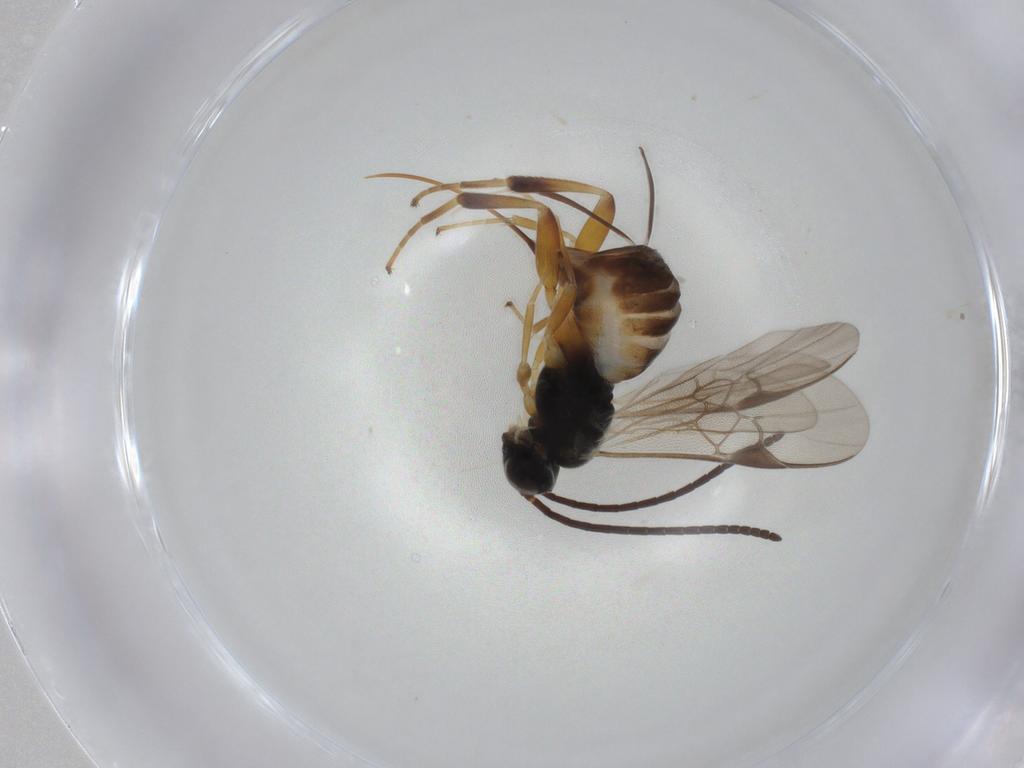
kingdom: Animalia
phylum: Arthropoda
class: Insecta
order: Hymenoptera
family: Braconidae
